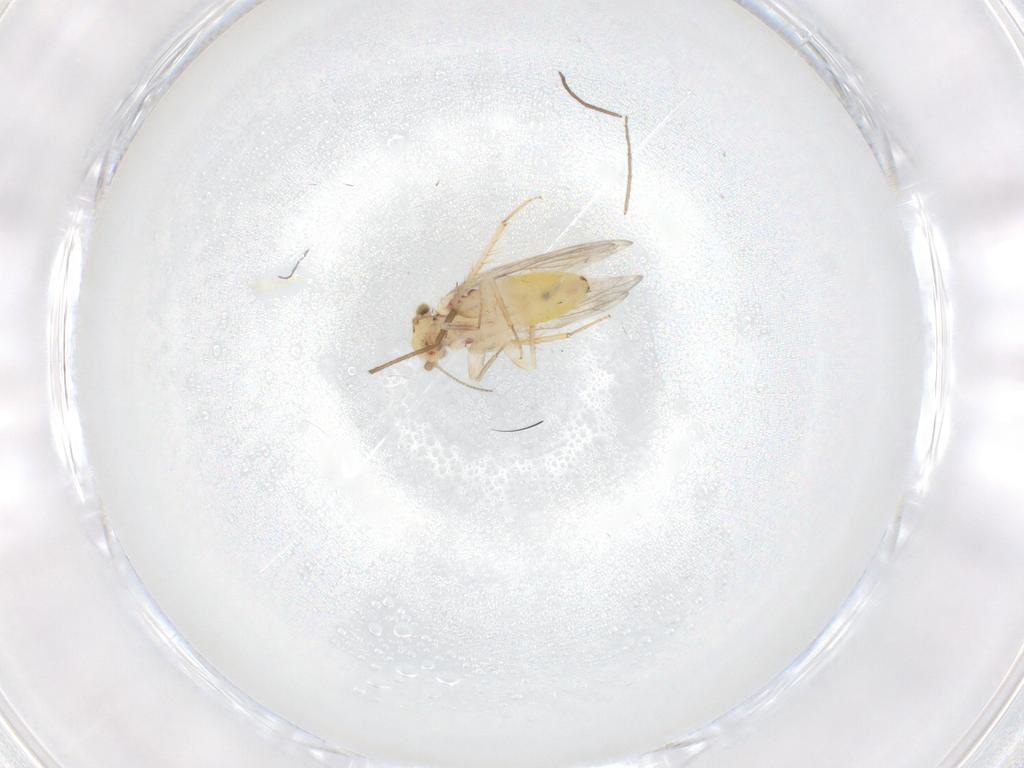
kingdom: Animalia
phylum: Arthropoda
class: Insecta
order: Psocodea
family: Lepidopsocidae
